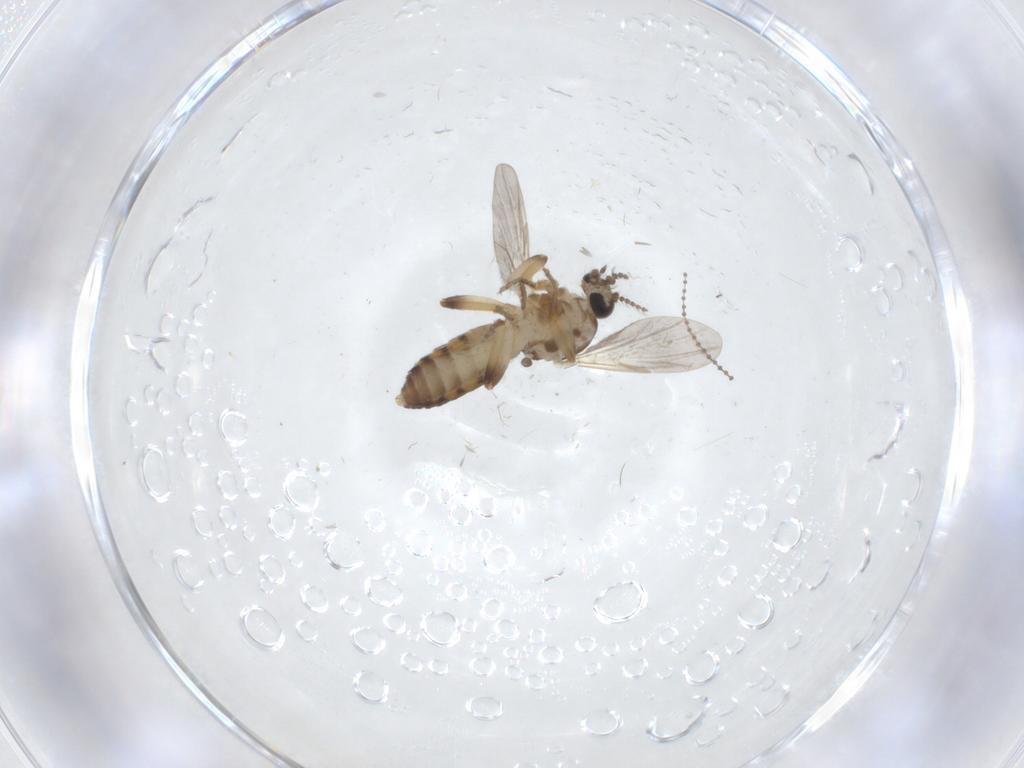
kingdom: Animalia
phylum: Arthropoda
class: Insecta
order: Diptera
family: Ceratopogonidae
